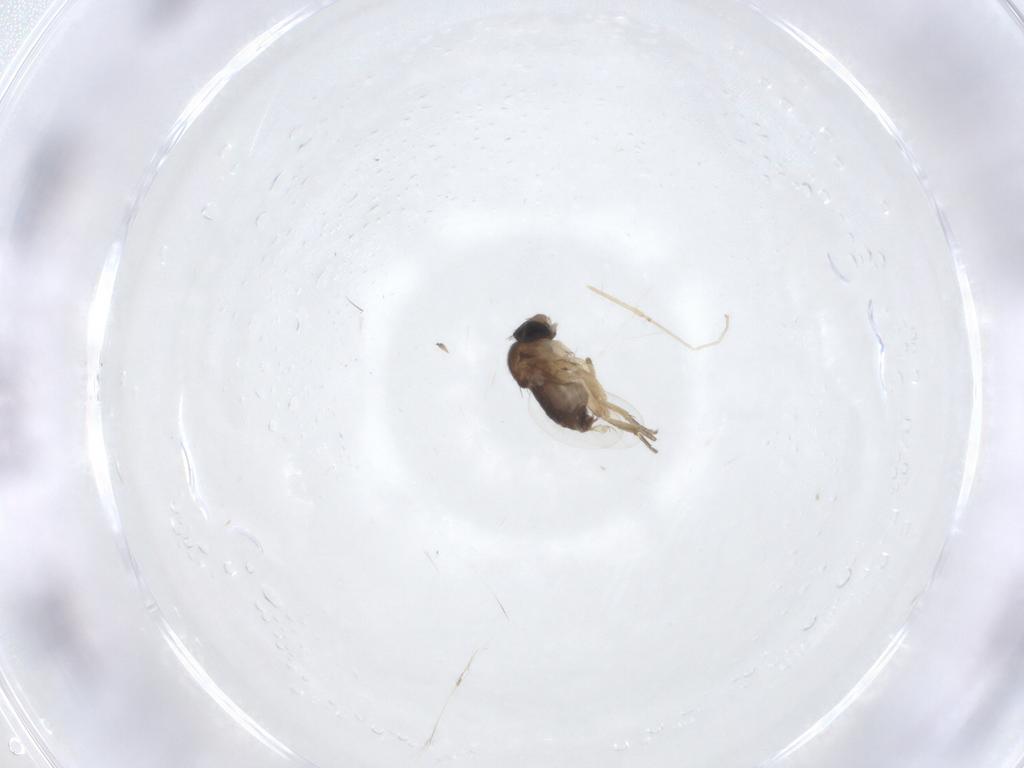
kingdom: Animalia
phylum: Arthropoda
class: Insecta
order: Diptera
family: Cecidomyiidae
